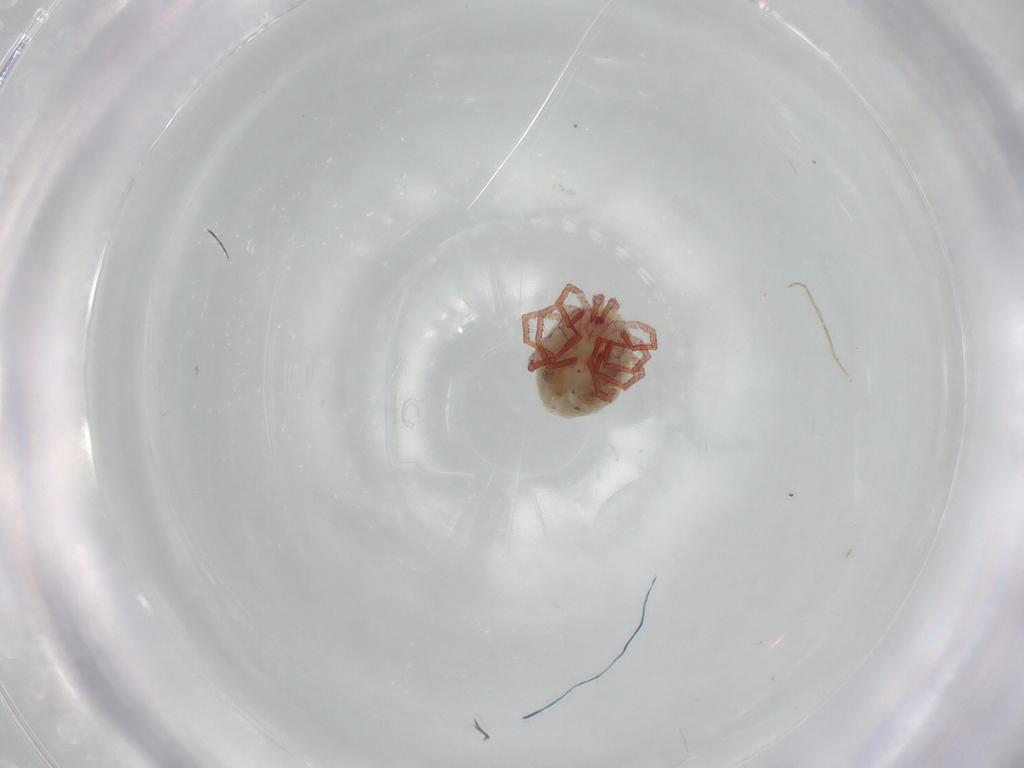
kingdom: Animalia
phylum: Arthropoda
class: Arachnida
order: Trombidiformes
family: Pionidae
